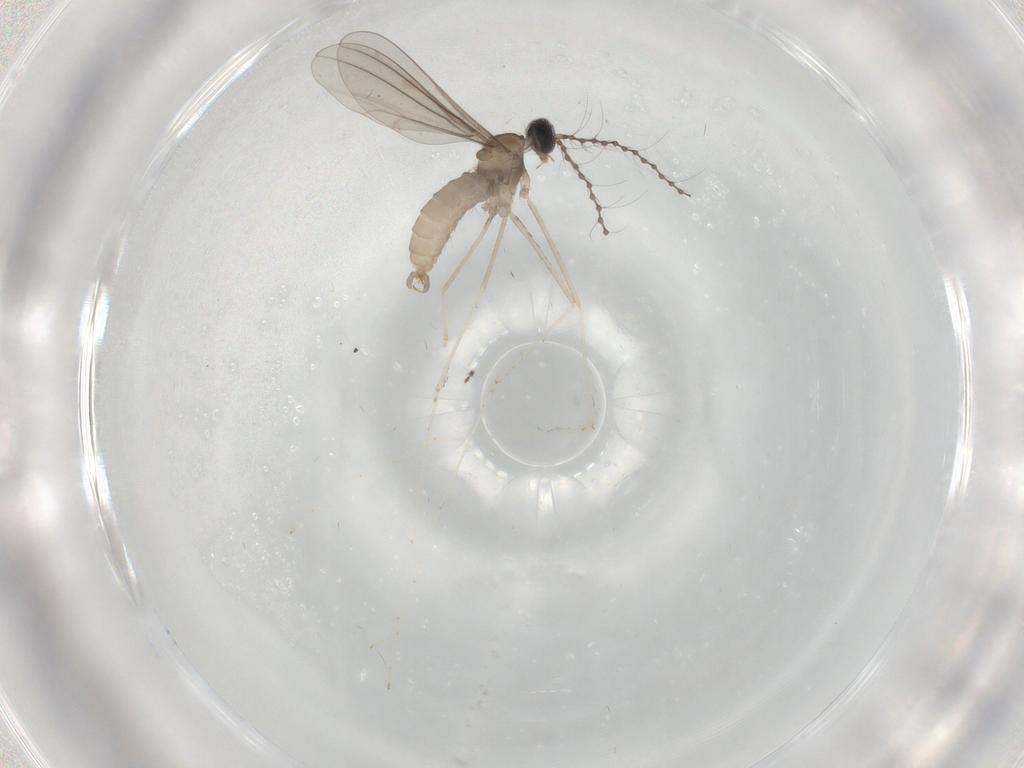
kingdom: Animalia
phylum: Arthropoda
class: Insecta
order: Diptera
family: Cecidomyiidae
